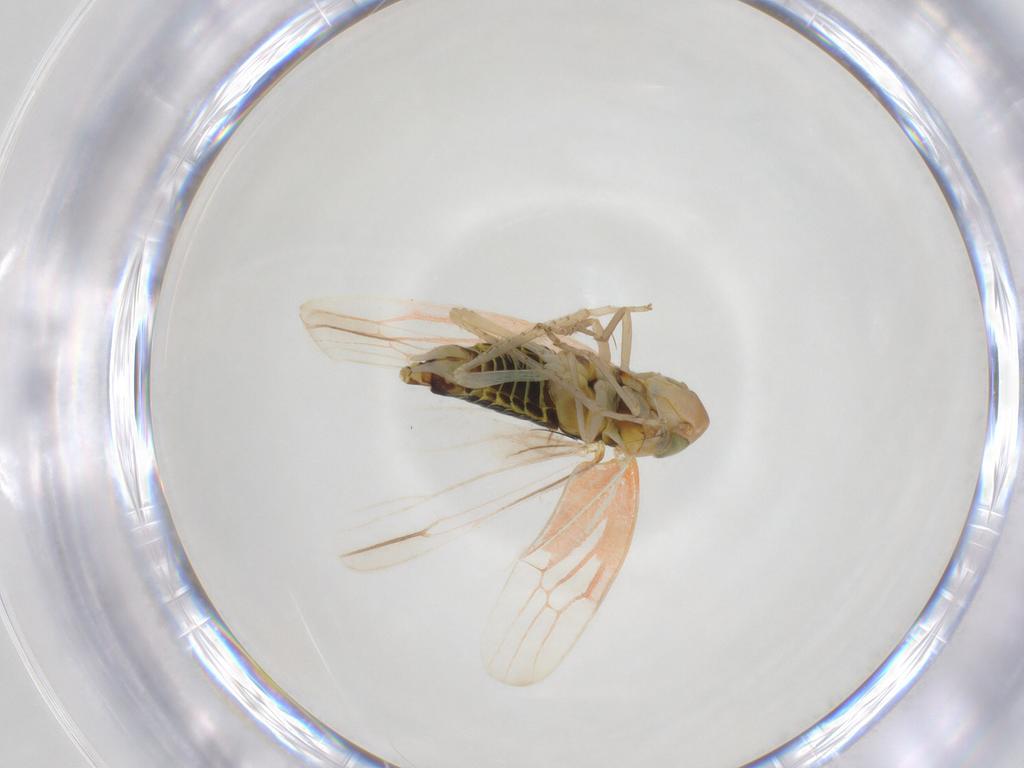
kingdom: Animalia
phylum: Arthropoda
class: Insecta
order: Hemiptera
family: Cicadellidae
